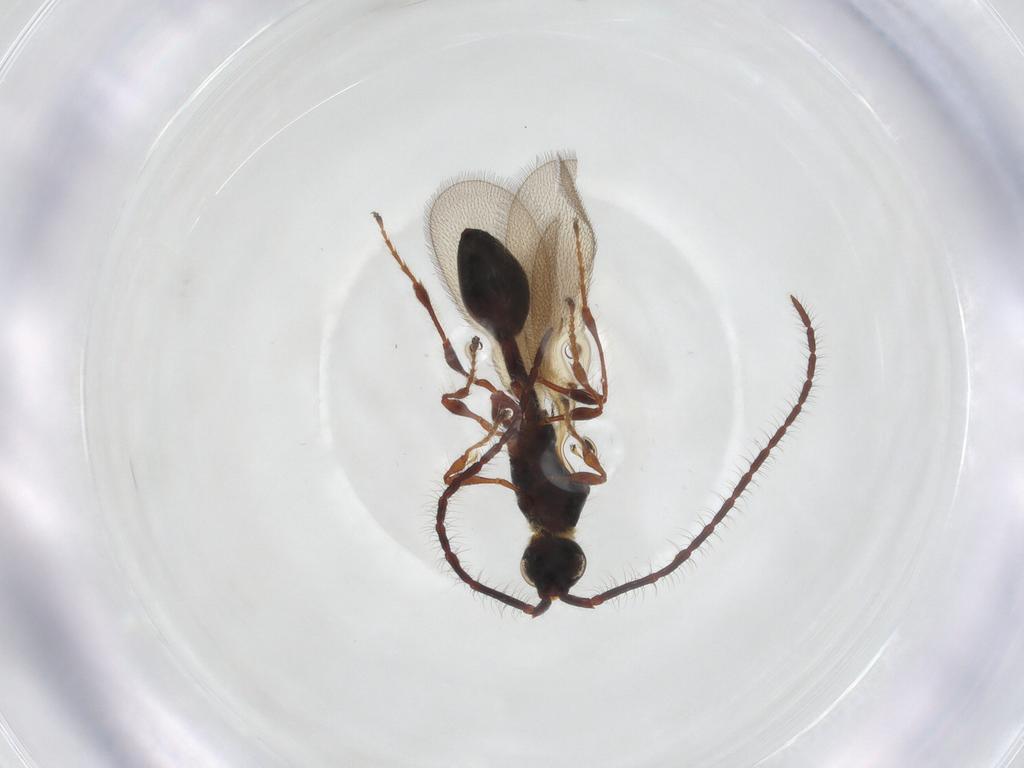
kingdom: Animalia
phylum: Arthropoda
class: Insecta
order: Hymenoptera
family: Diapriidae
